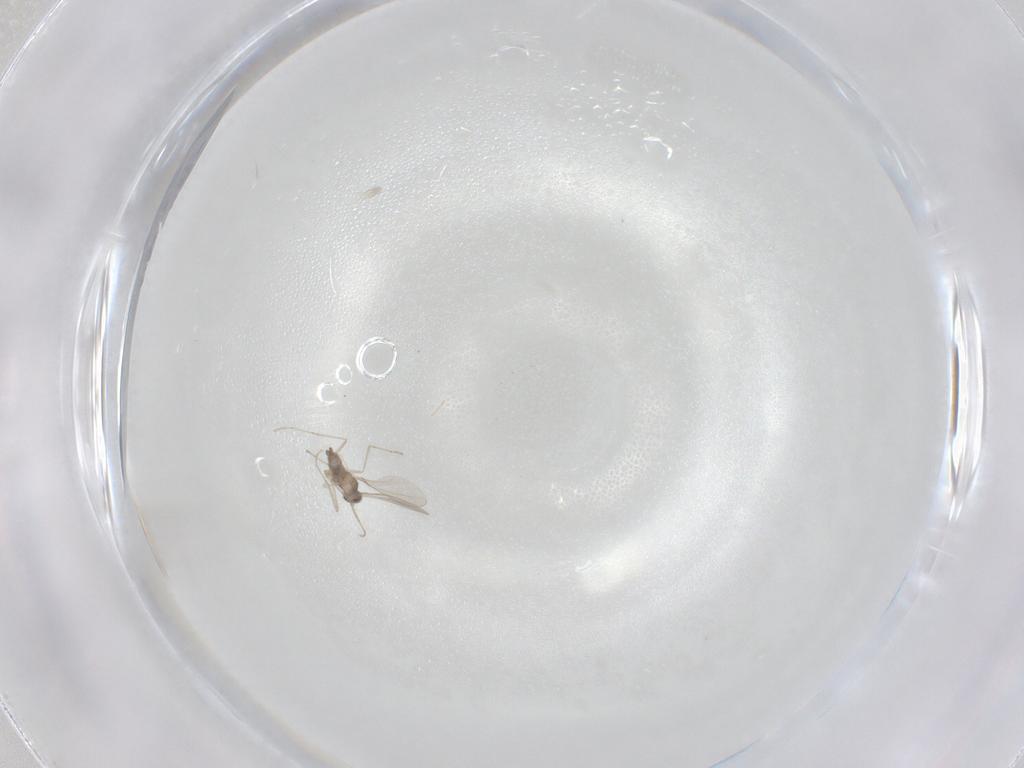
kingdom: Animalia
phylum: Arthropoda
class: Insecta
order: Diptera
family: Cecidomyiidae
